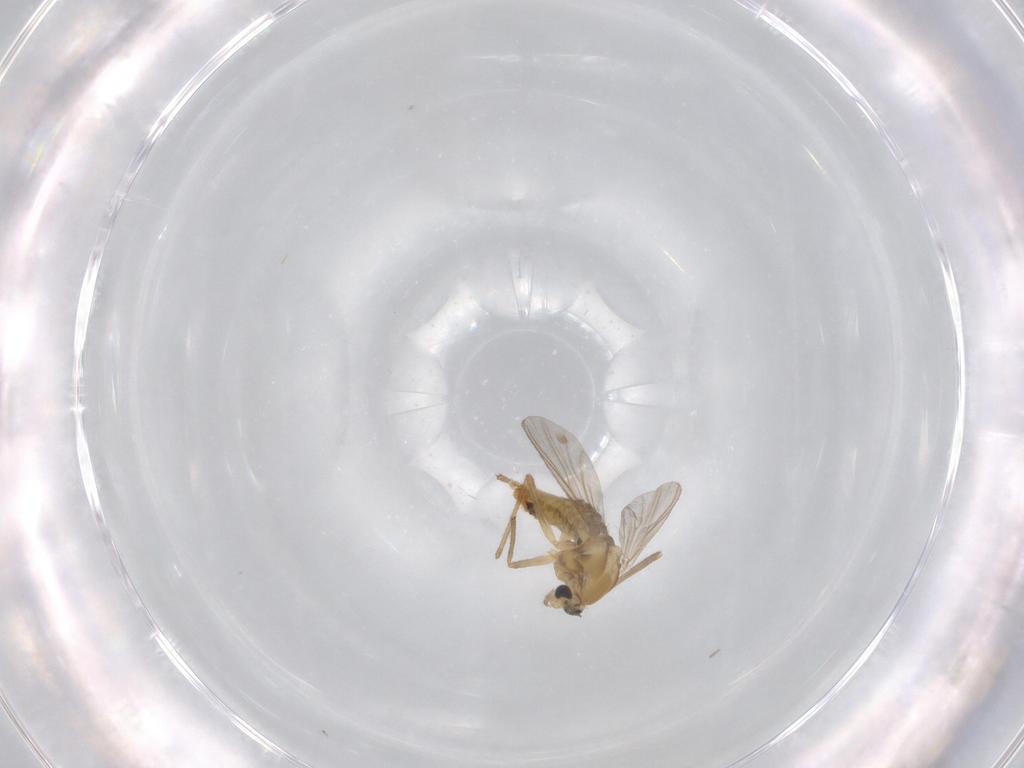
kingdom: Animalia
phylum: Arthropoda
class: Insecta
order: Diptera
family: Chironomidae
